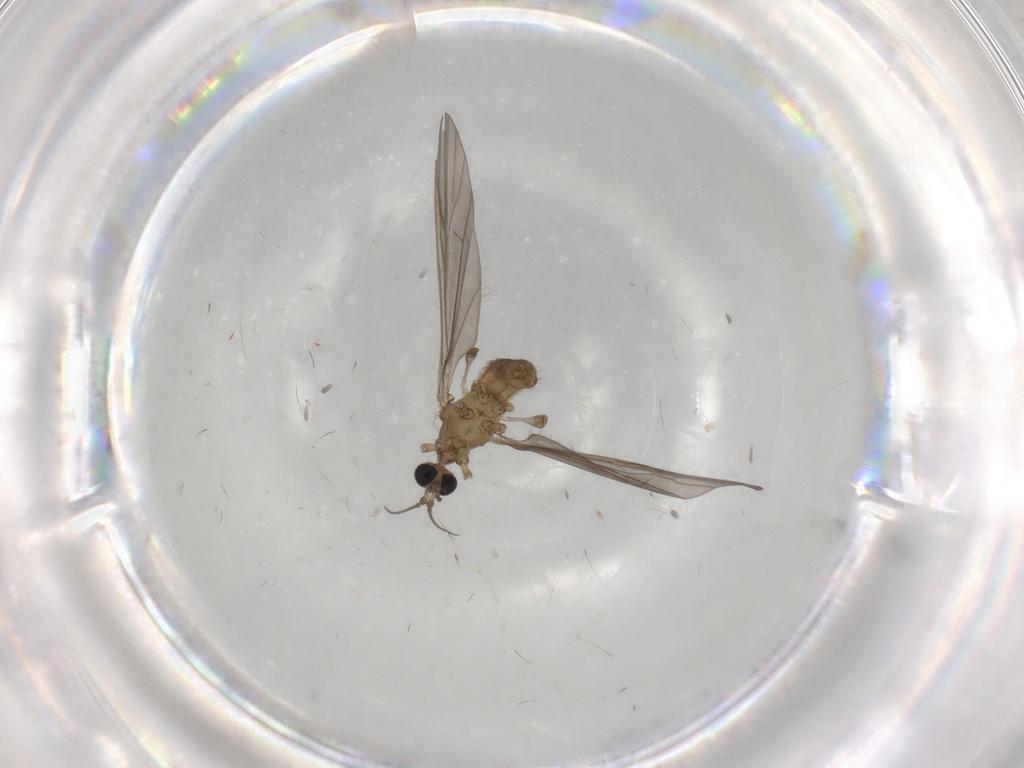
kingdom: Animalia
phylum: Arthropoda
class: Insecta
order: Diptera
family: Limoniidae
